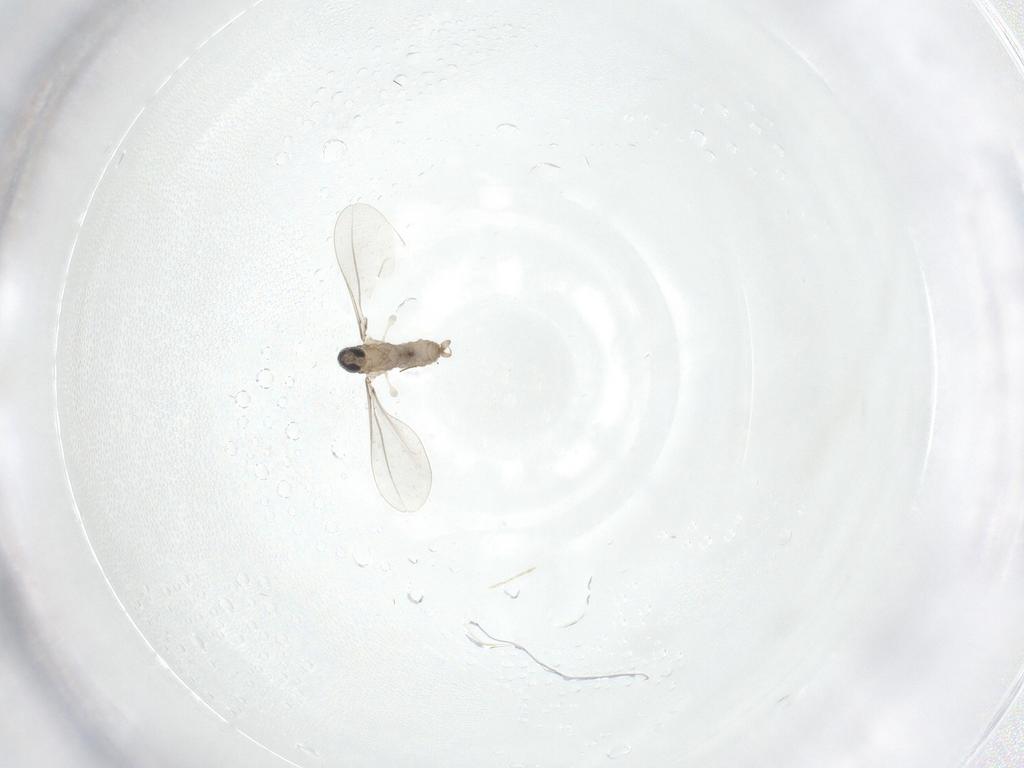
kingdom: Animalia
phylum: Arthropoda
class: Insecta
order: Diptera
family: Cecidomyiidae
